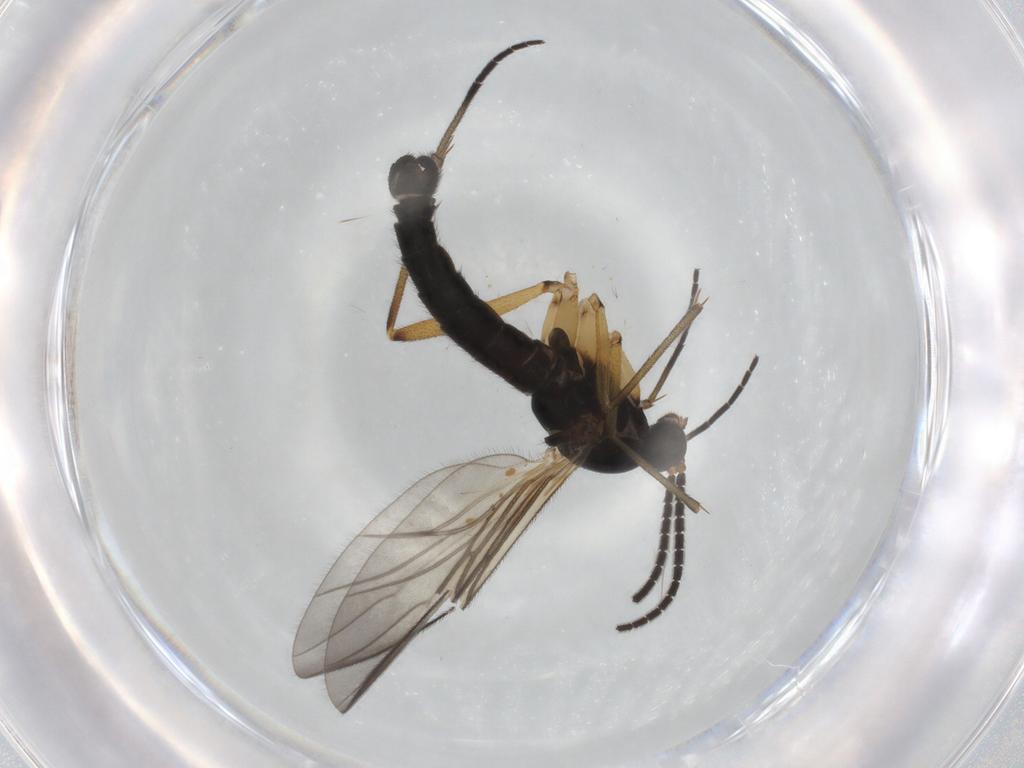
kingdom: Animalia
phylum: Arthropoda
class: Insecta
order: Diptera
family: Sciaridae
